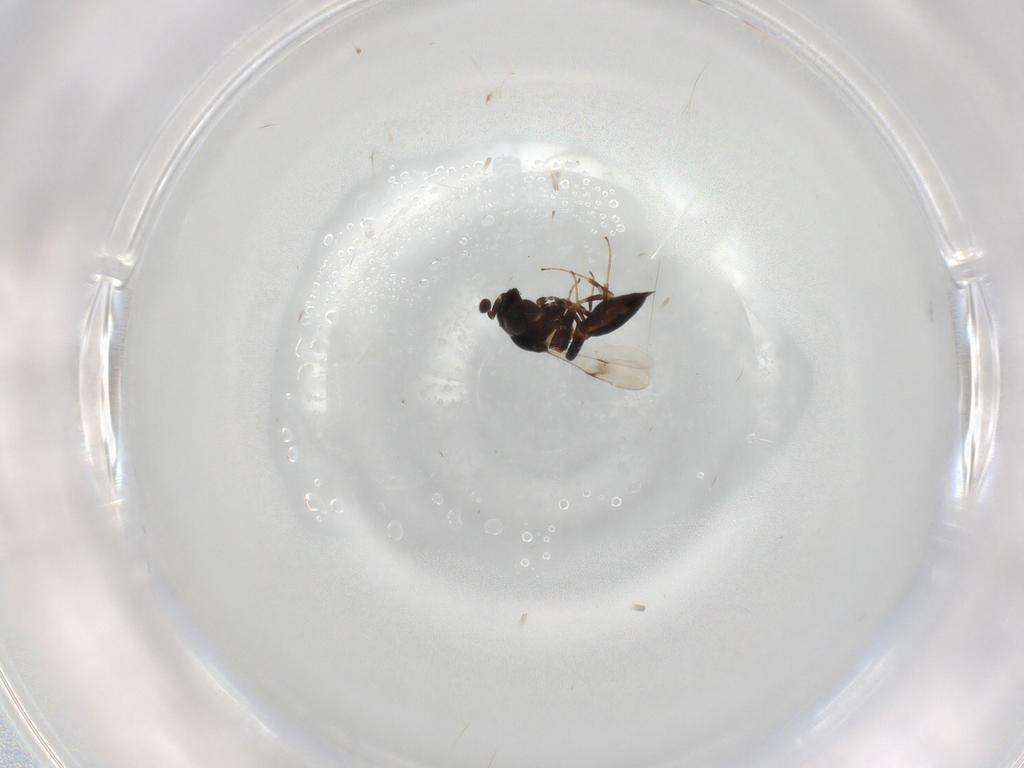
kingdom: Animalia
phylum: Arthropoda
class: Insecta
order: Hymenoptera
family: Scelionidae
